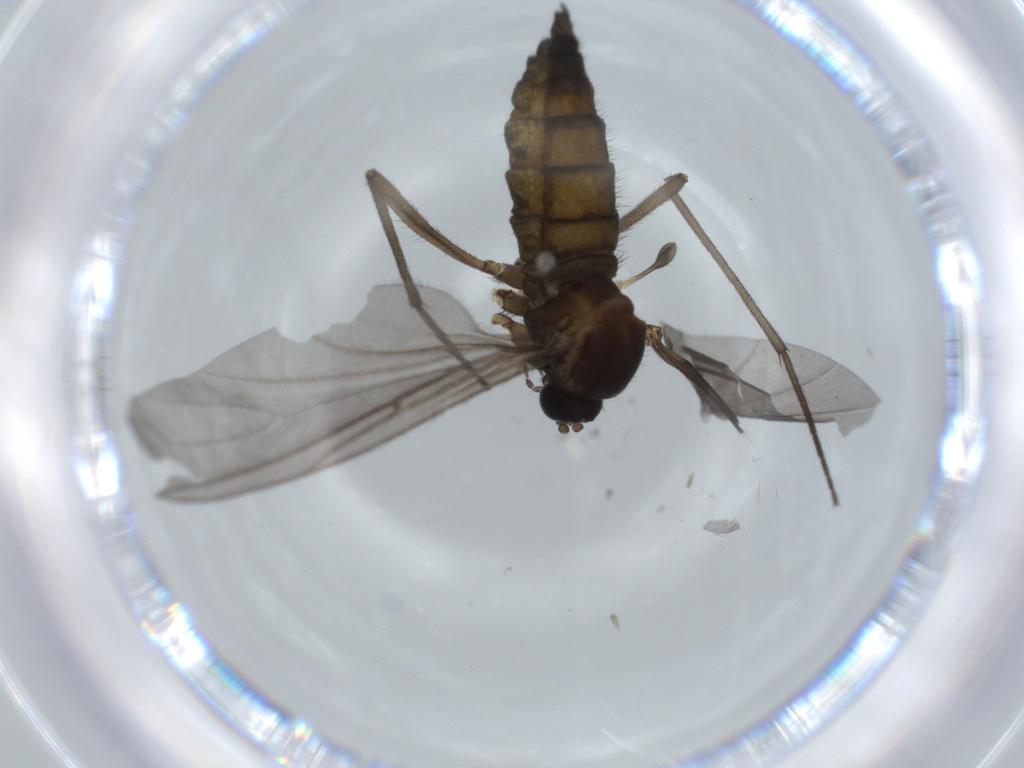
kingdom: Animalia
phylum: Arthropoda
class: Insecta
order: Diptera
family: Sciaridae
